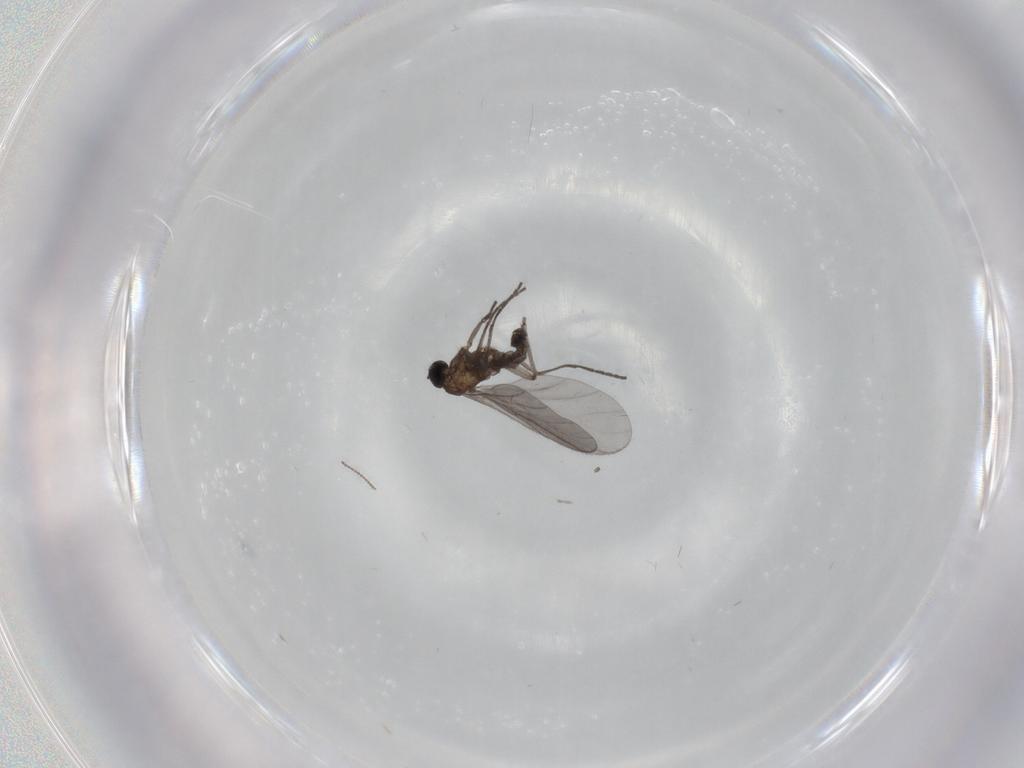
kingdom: Animalia
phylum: Arthropoda
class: Insecta
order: Diptera
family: Sciaridae
